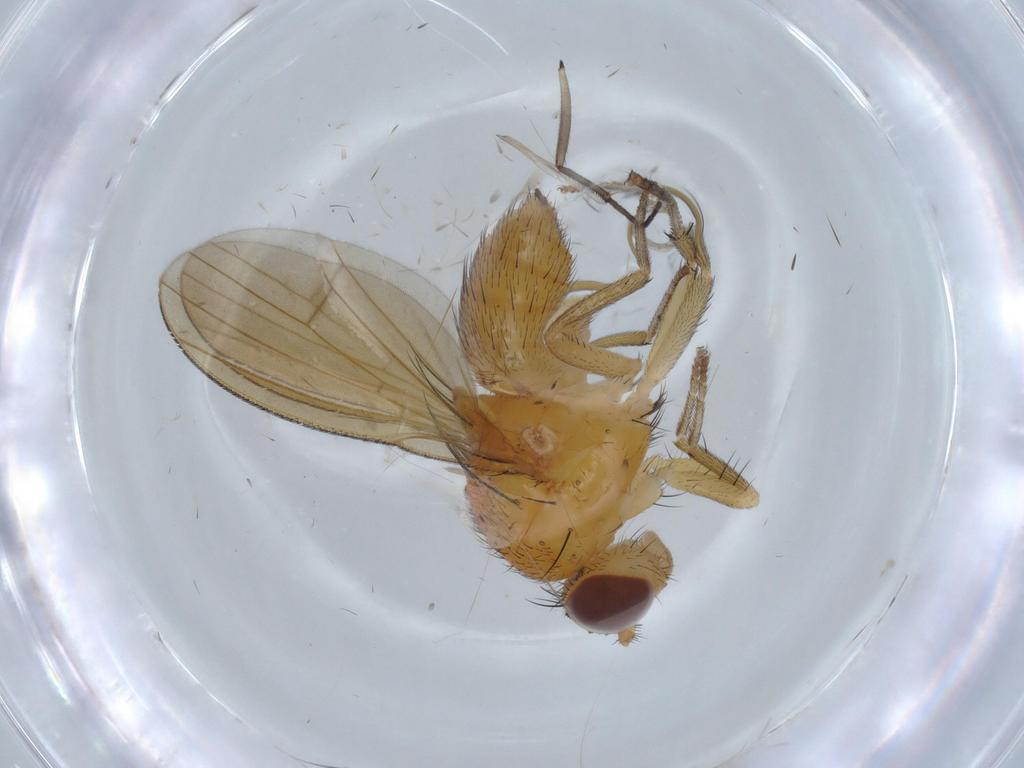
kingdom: Animalia
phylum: Arthropoda
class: Insecta
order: Diptera
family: Lauxaniidae
